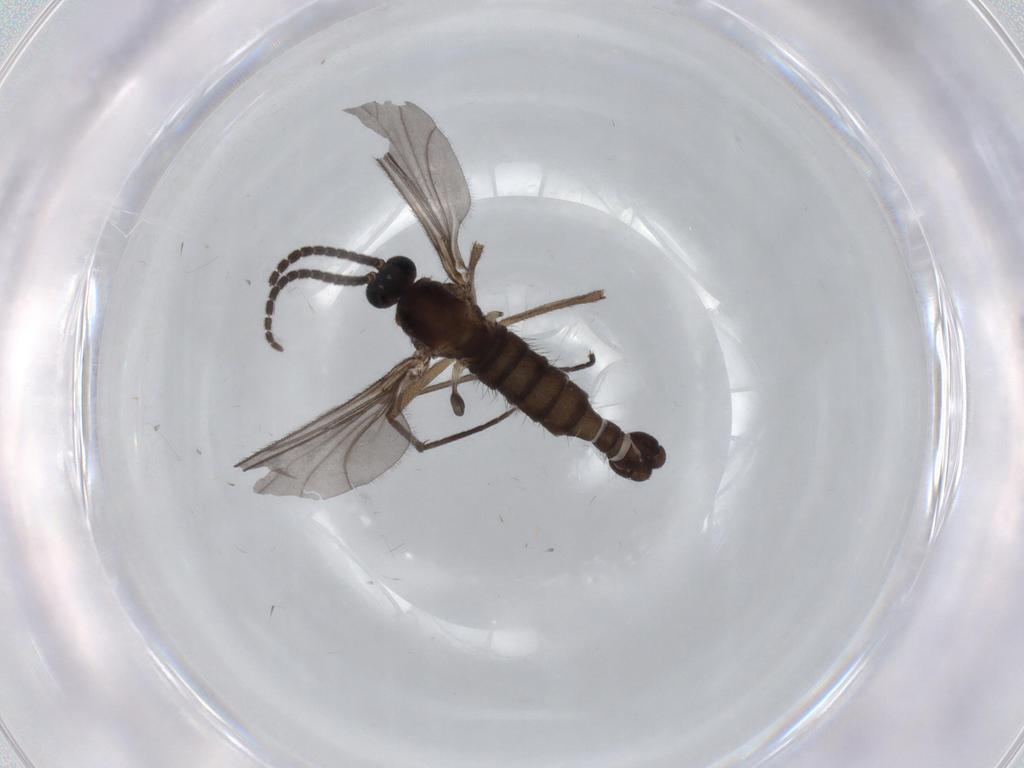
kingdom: Animalia
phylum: Arthropoda
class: Insecta
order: Diptera
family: Sciaridae
